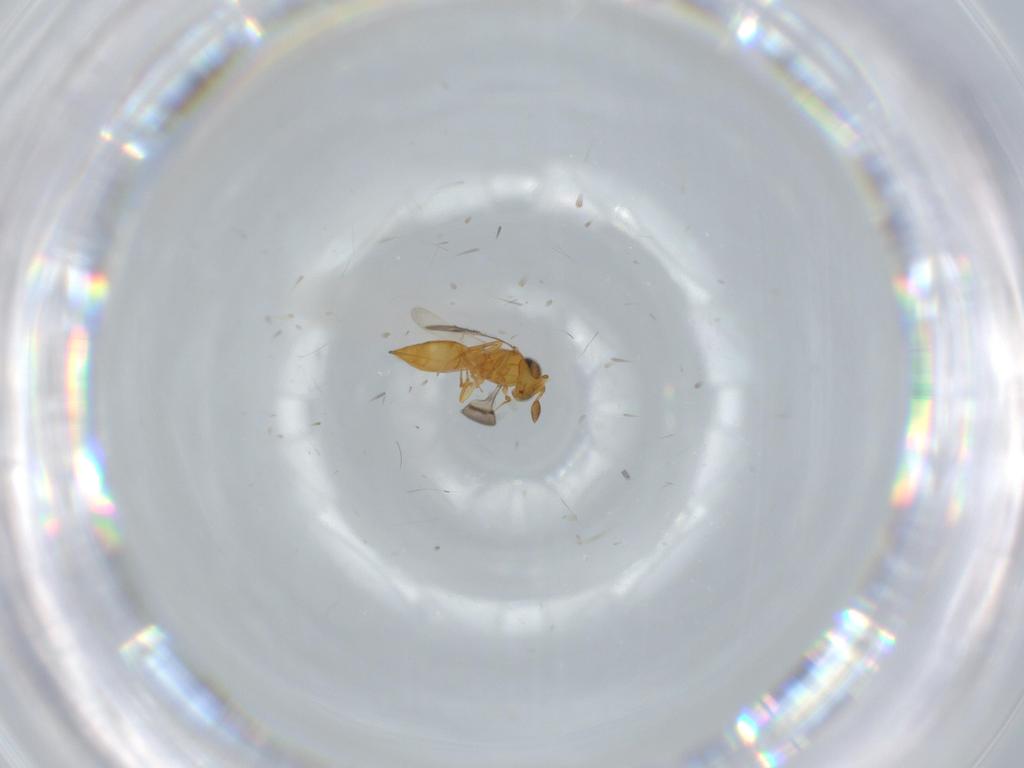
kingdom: Animalia
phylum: Arthropoda
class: Insecta
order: Hymenoptera
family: Scelionidae
